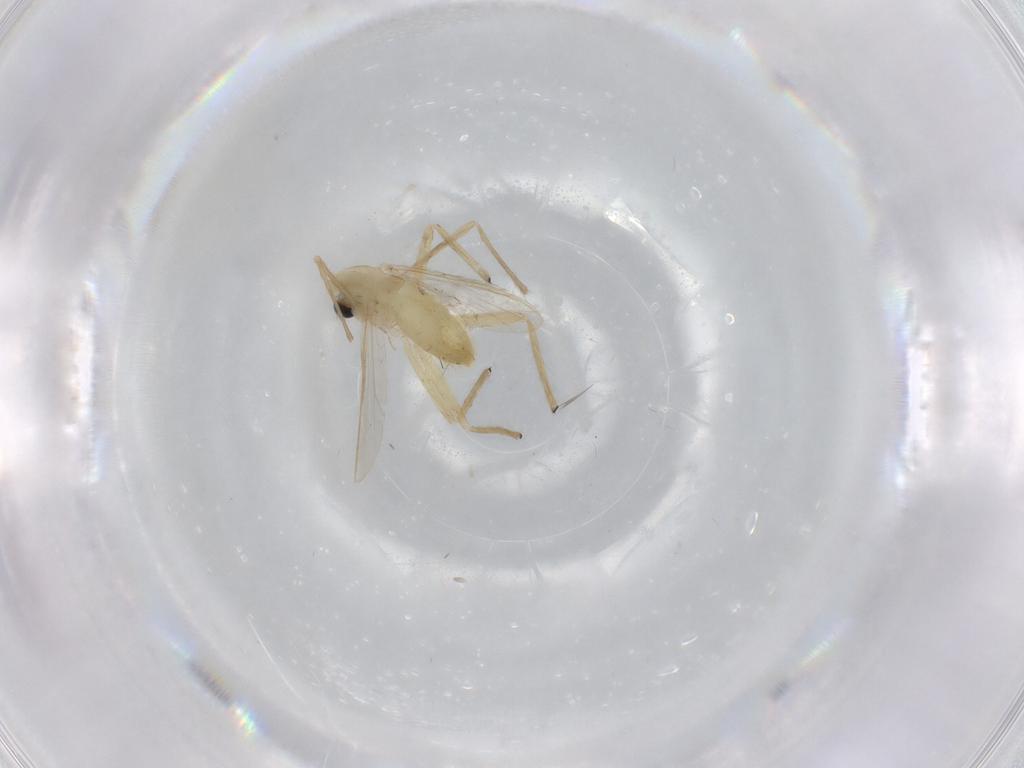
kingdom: Animalia
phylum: Arthropoda
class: Insecta
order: Diptera
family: Chironomidae
